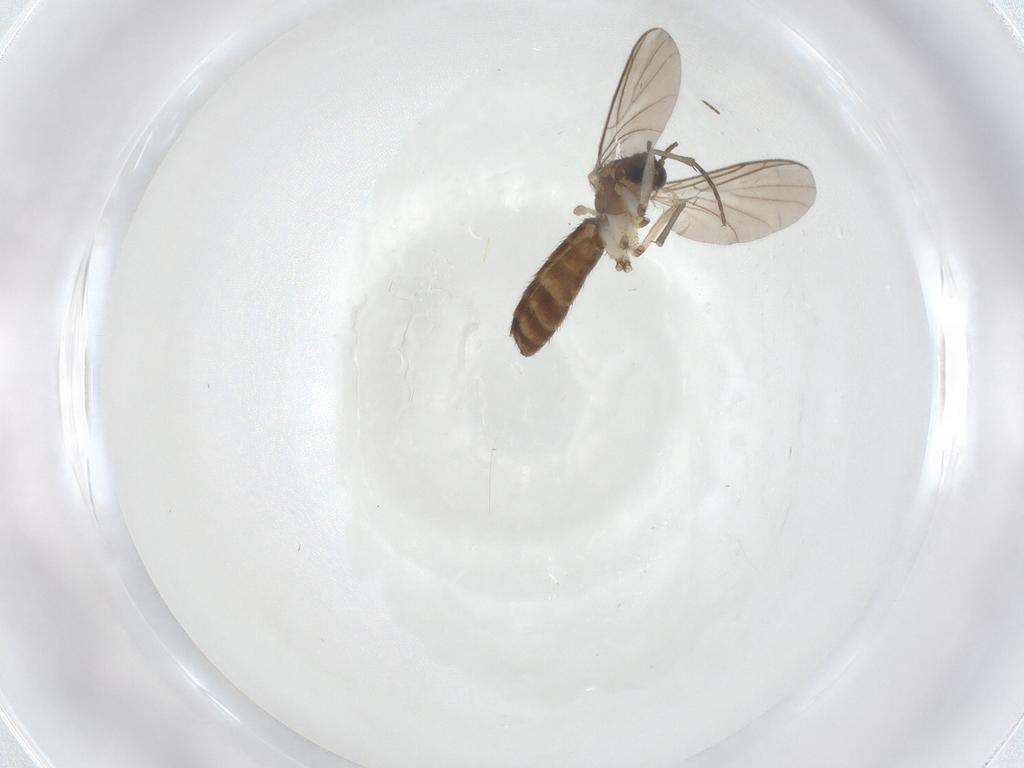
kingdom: Animalia
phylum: Arthropoda
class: Insecta
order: Diptera
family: Keroplatidae
